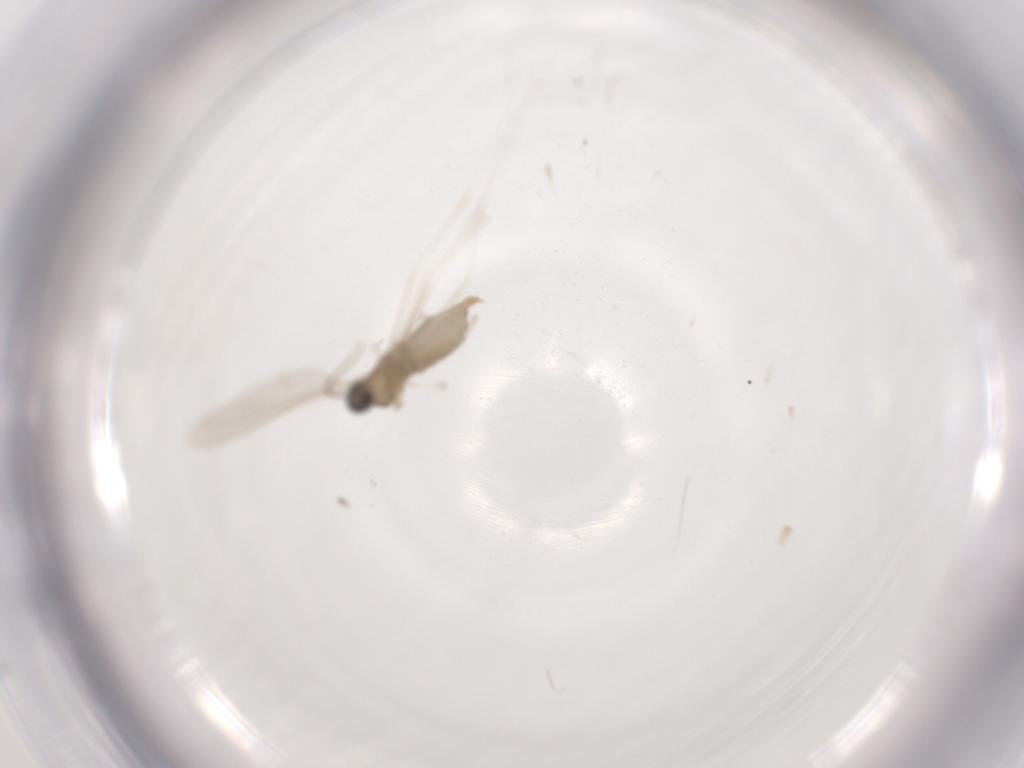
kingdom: Animalia
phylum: Arthropoda
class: Insecta
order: Diptera
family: Cecidomyiidae
